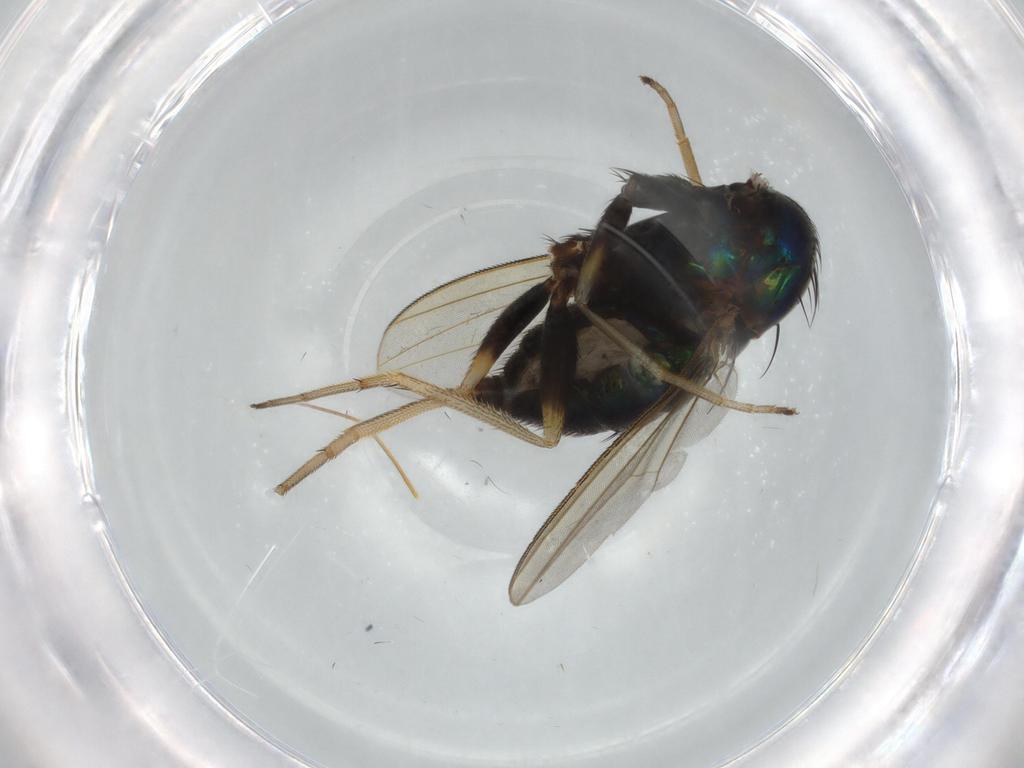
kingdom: Animalia
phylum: Arthropoda
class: Insecta
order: Diptera
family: Dolichopodidae
